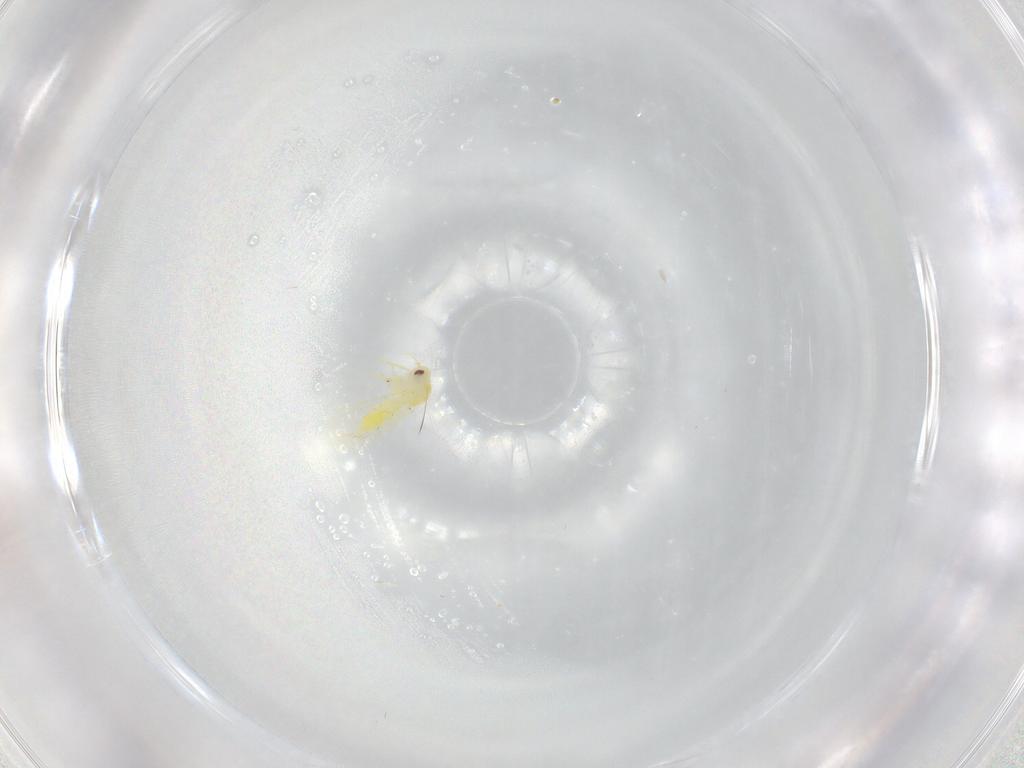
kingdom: Animalia
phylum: Arthropoda
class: Insecta
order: Hemiptera
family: Aleyrodidae
